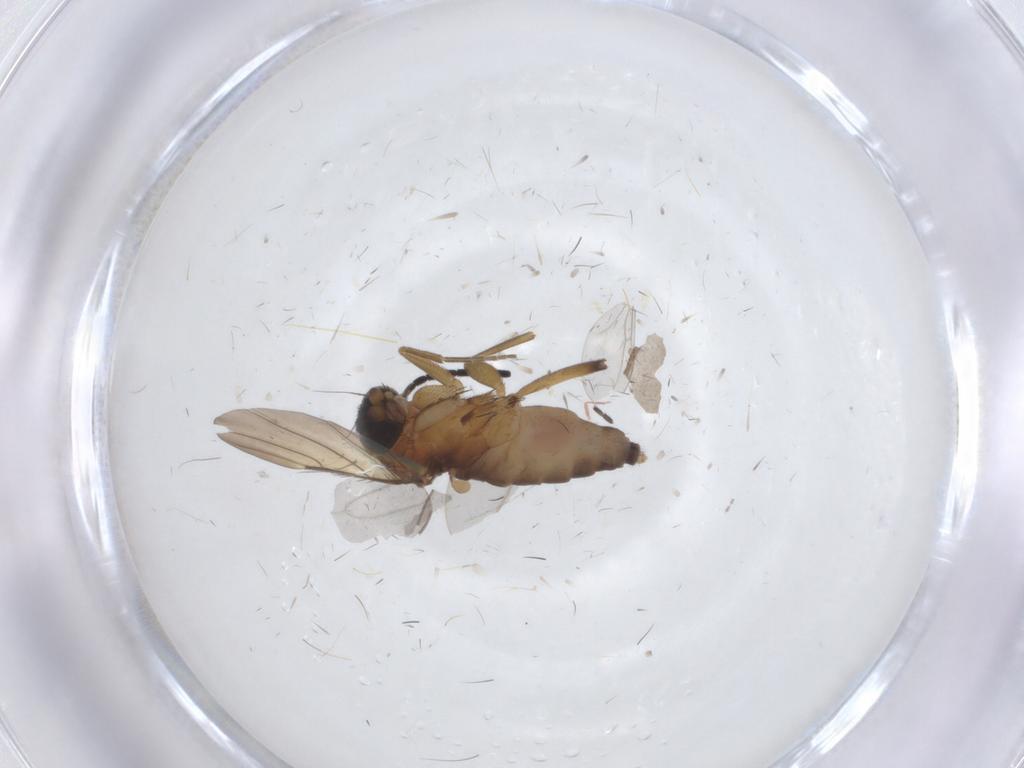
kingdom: Animalia
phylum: Arthropoda
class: Insecta
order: Diptera
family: Phoridae
